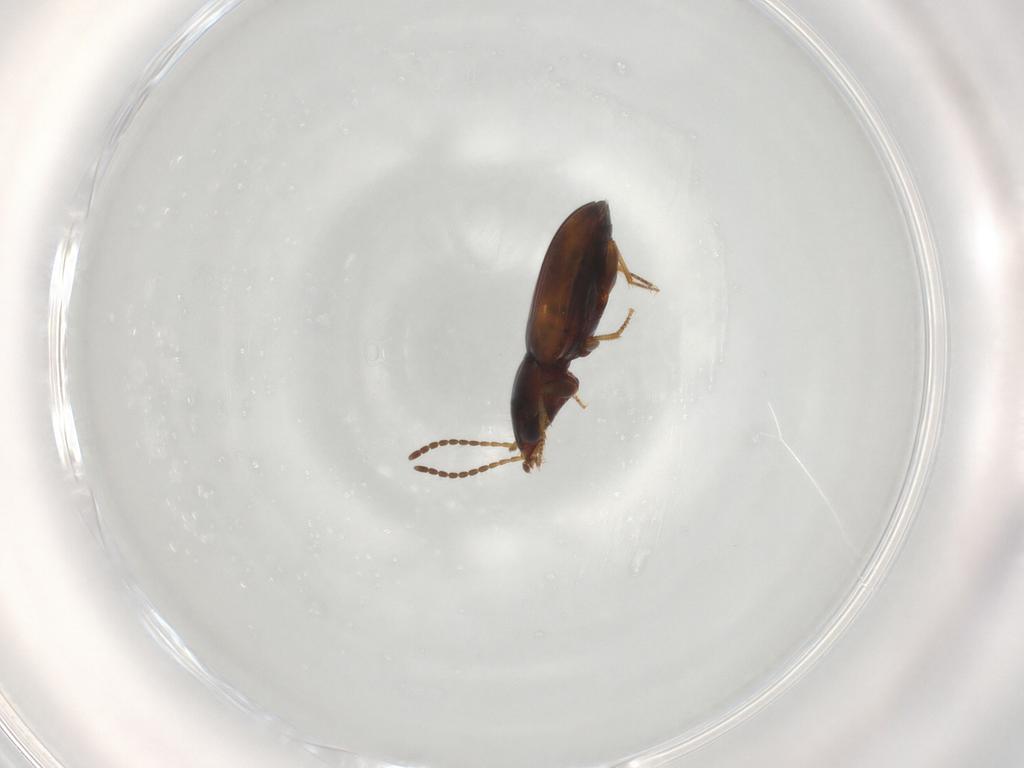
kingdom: Animalia
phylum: Arthropoda
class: Insecta
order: Coleoptera
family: Carabidae
